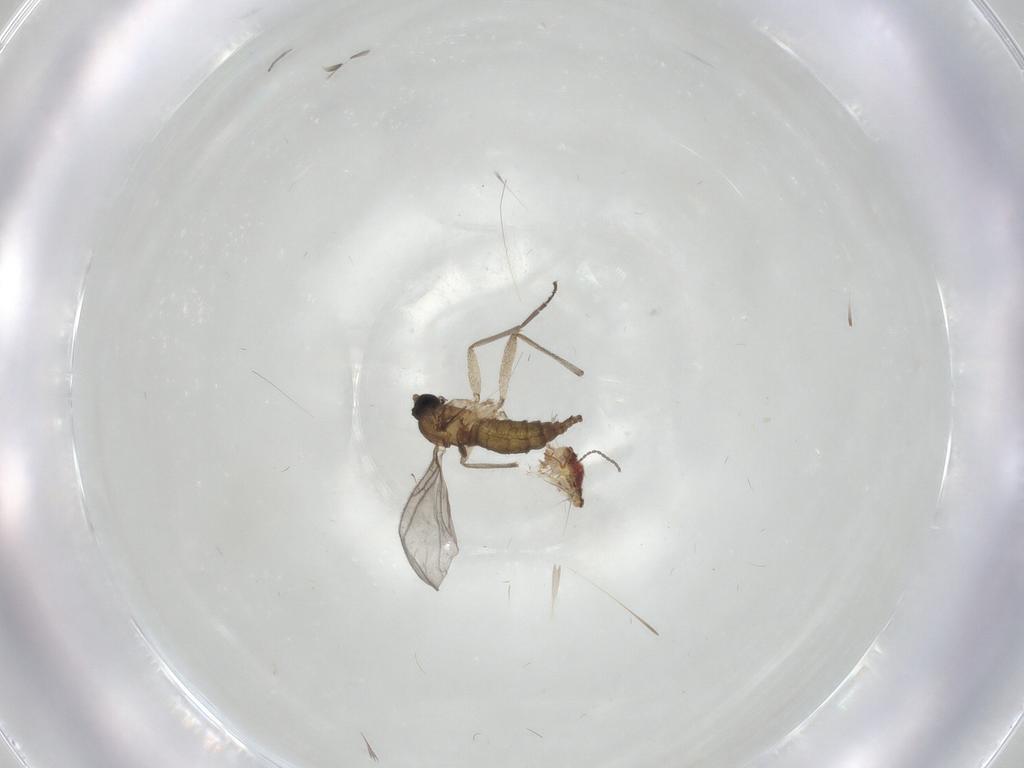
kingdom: Animalia
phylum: Arthropoda
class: Insecta
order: Diptera
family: Sciaridae
